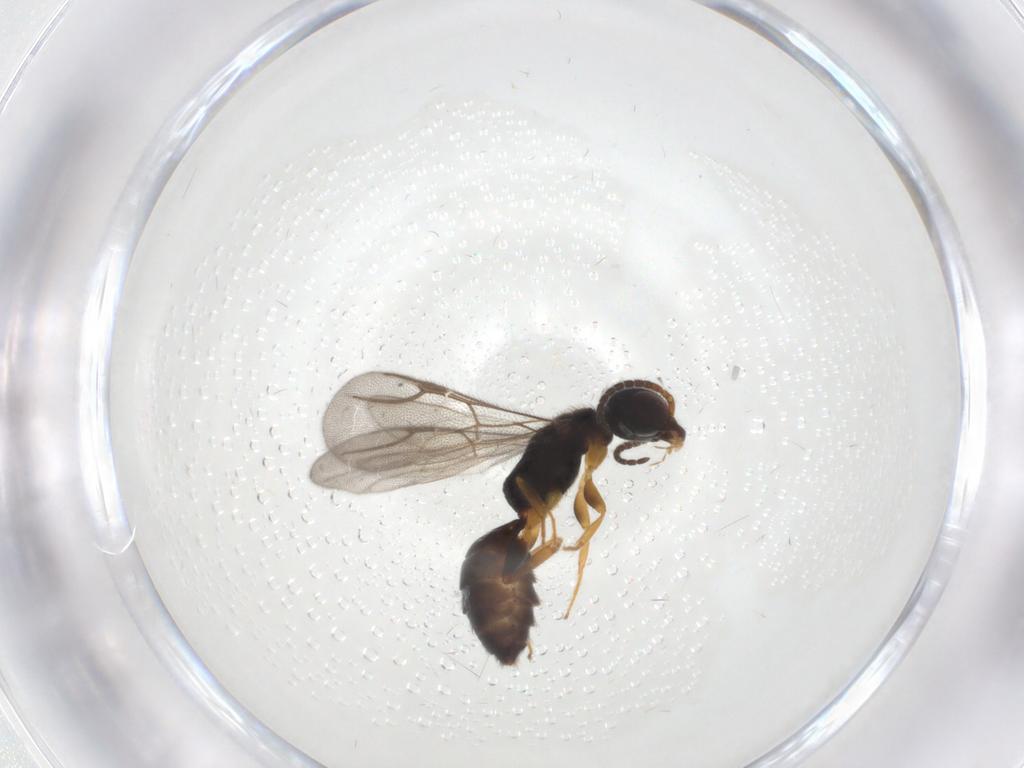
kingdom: Animalia
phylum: Arthropoda
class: Insecta
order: Hymenoptera
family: Bethylidae
